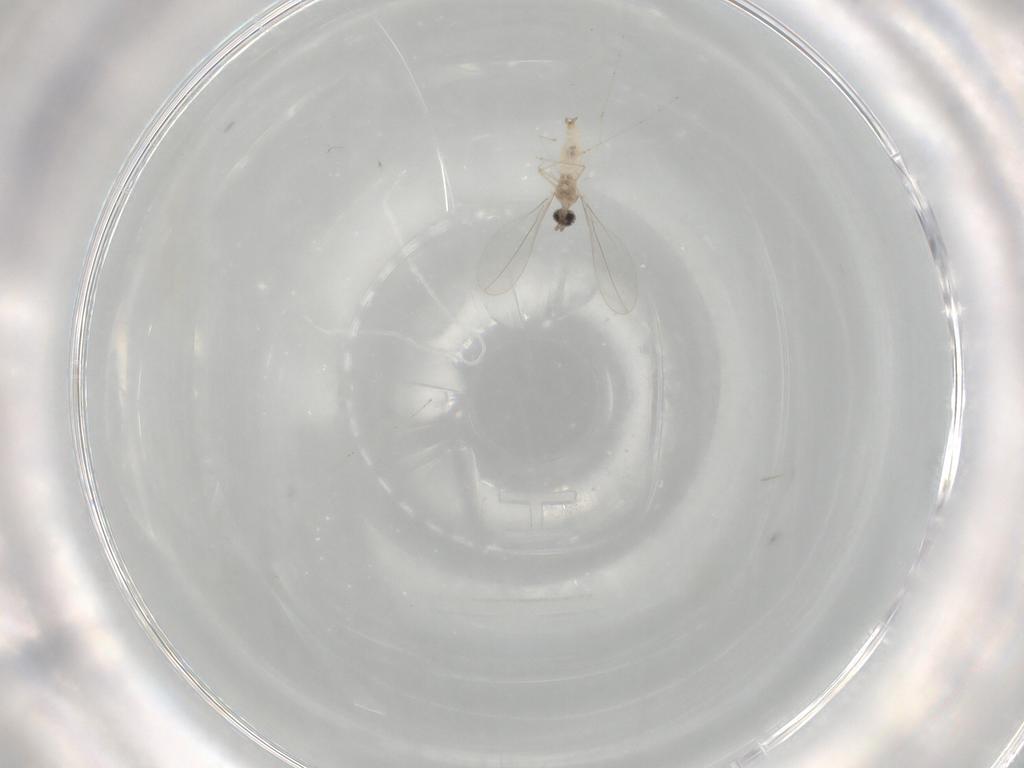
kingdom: Animalia
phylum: Arthropoda
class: Insecta
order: Diptera
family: Cecidomyiidae
